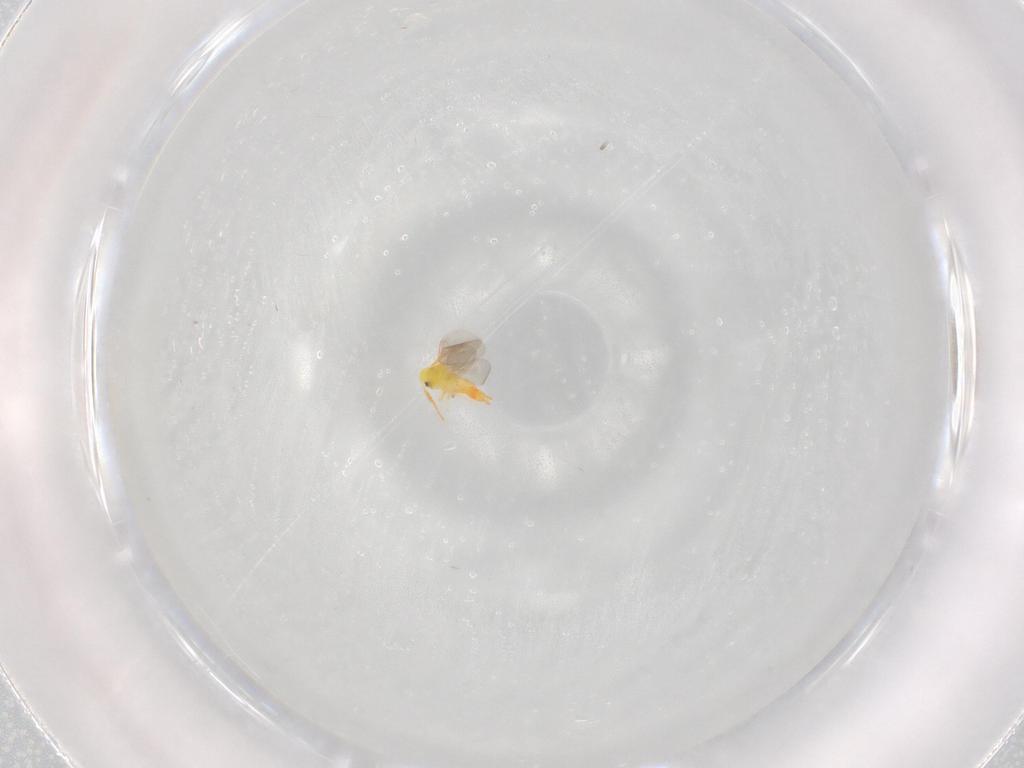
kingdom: Animalia
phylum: Arthropoda
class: Insecta
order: Hemiptera
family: Aleyrodidae
